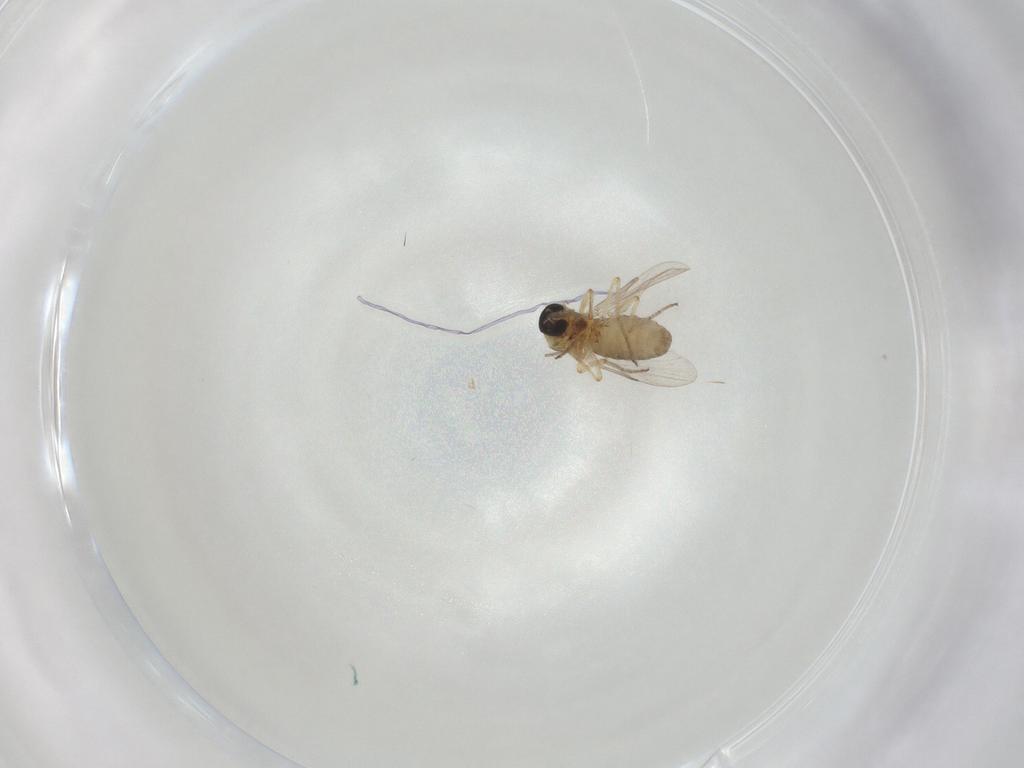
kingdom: Animalia
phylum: Arthropoda
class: Insecta
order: Diptera
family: Ceratopogonidae
